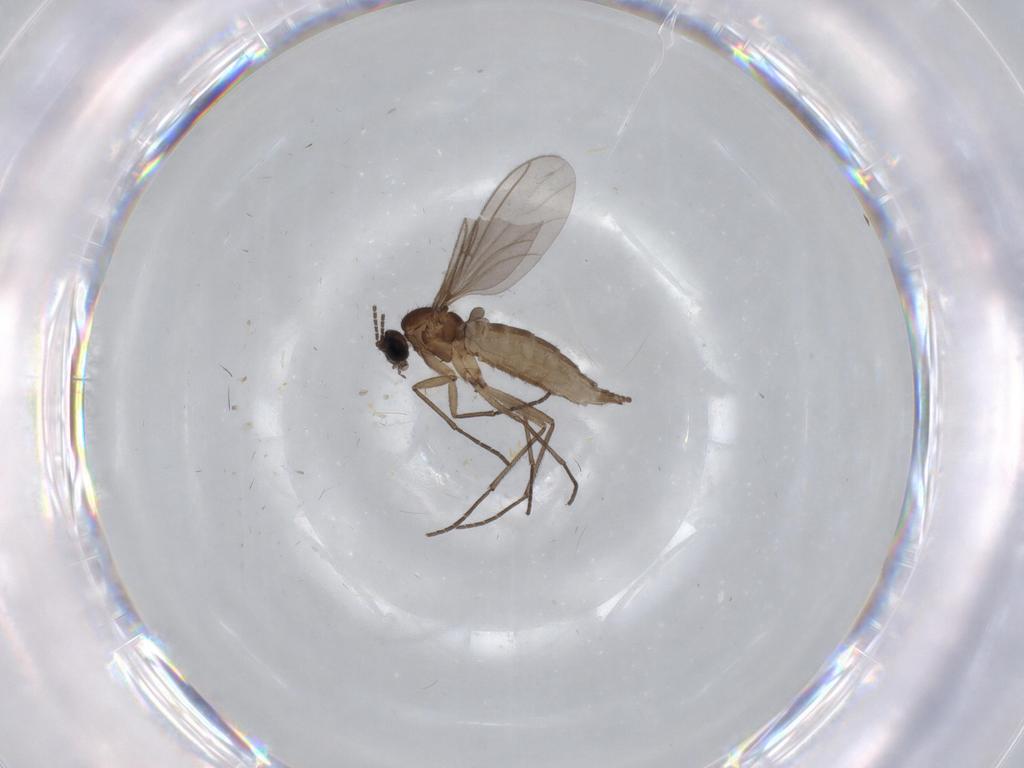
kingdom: Animalia
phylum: Arthropoda
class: Insecta
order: Diptera
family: Sciaridae
